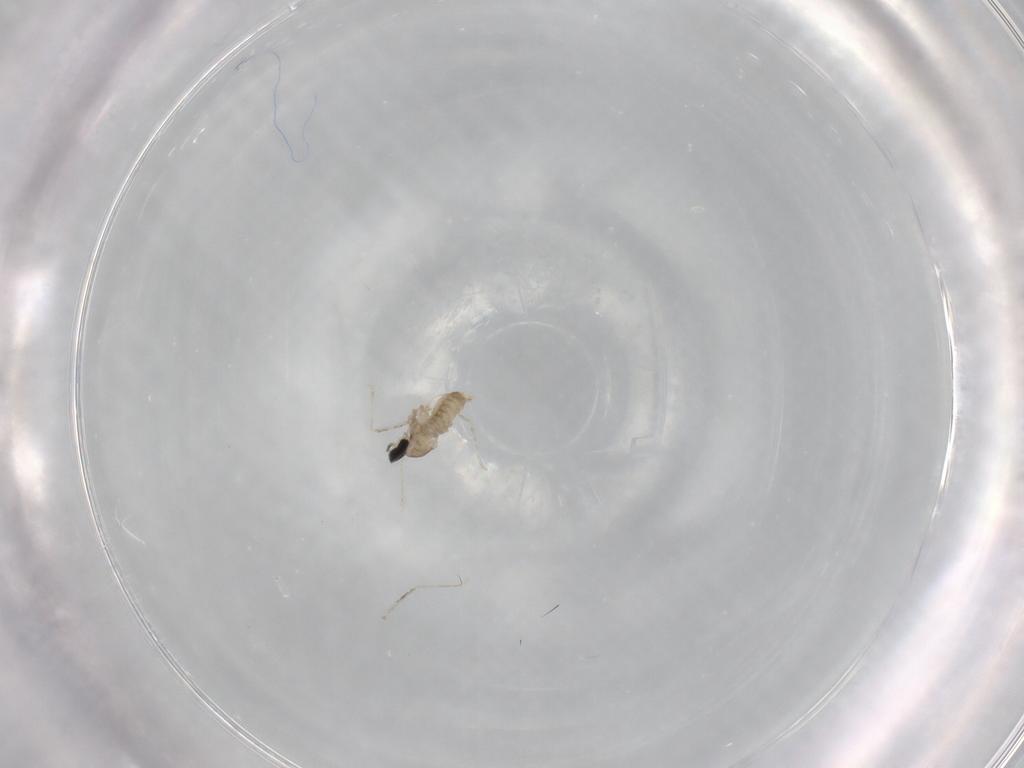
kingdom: Animalia
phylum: Arthropoda
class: Insecta
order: Diptera
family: Cecidomyiidae
